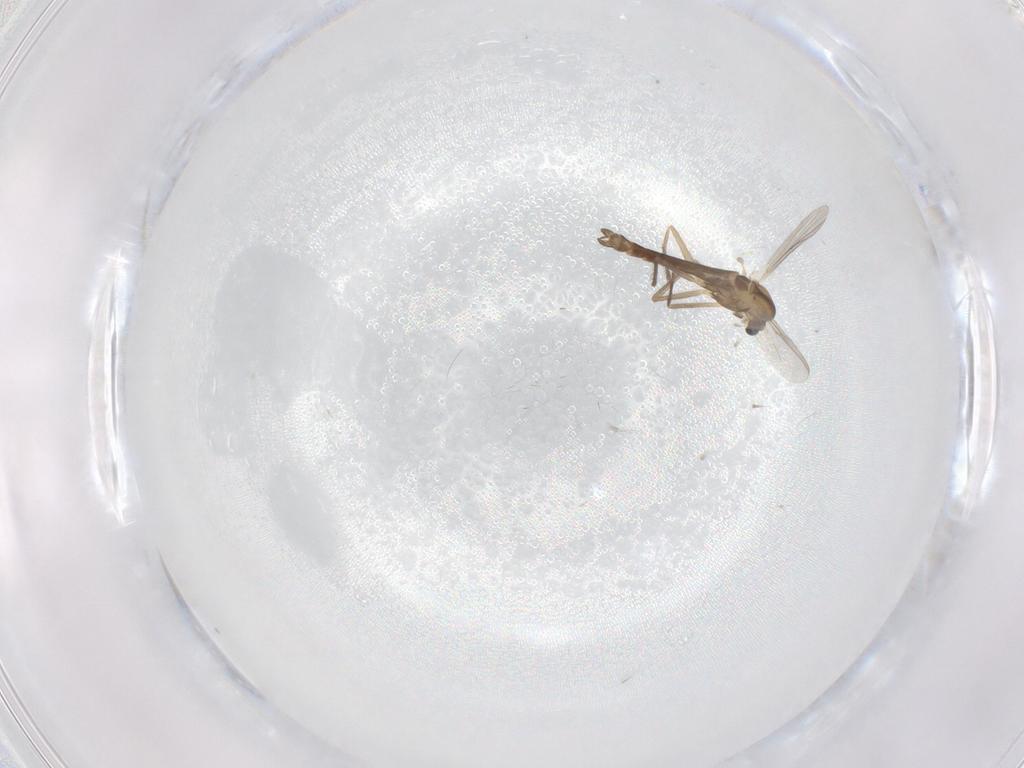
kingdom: Animalia
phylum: Arthropoda
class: Insecta
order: Diptera
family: Chironomidae
